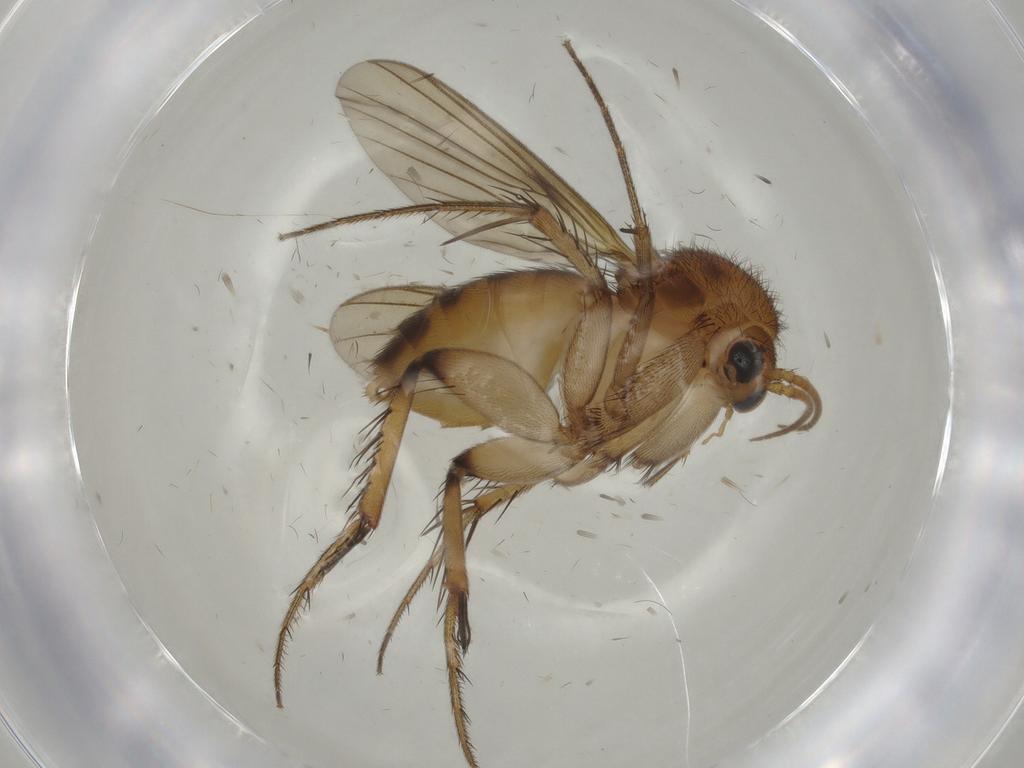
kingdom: Animalia
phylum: Arthropoda
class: Insecta
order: Diptera
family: Mycetophilidae
